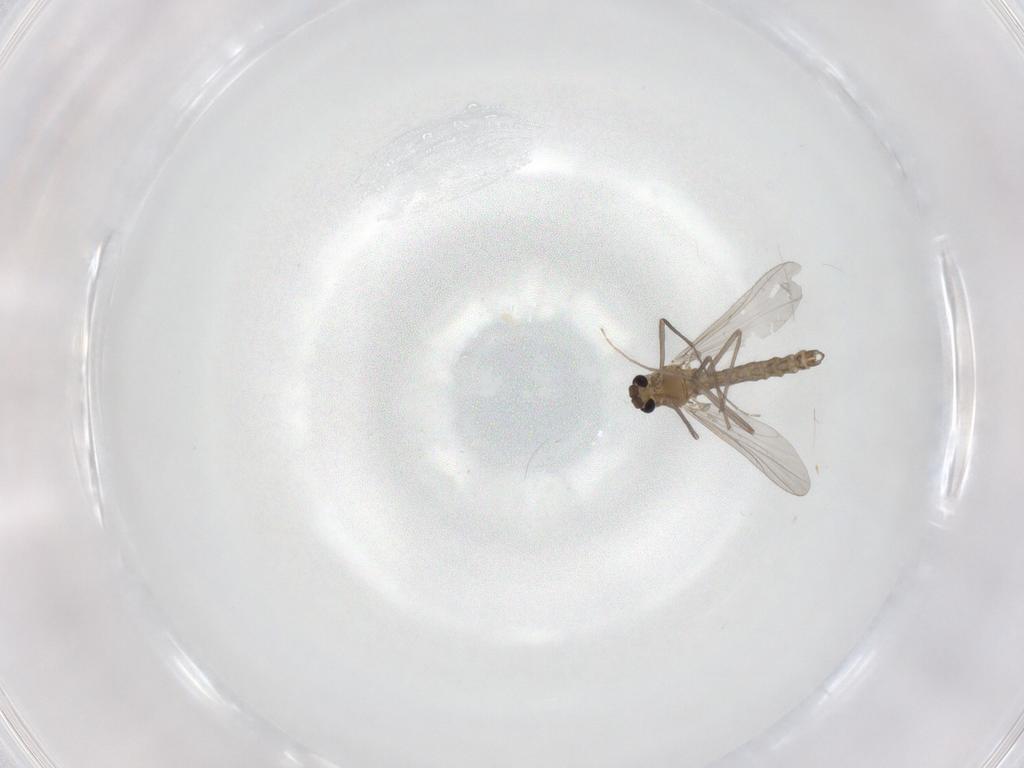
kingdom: Animalia
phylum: Arthropoda
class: Insecta
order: Diptera
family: Chironomidae
